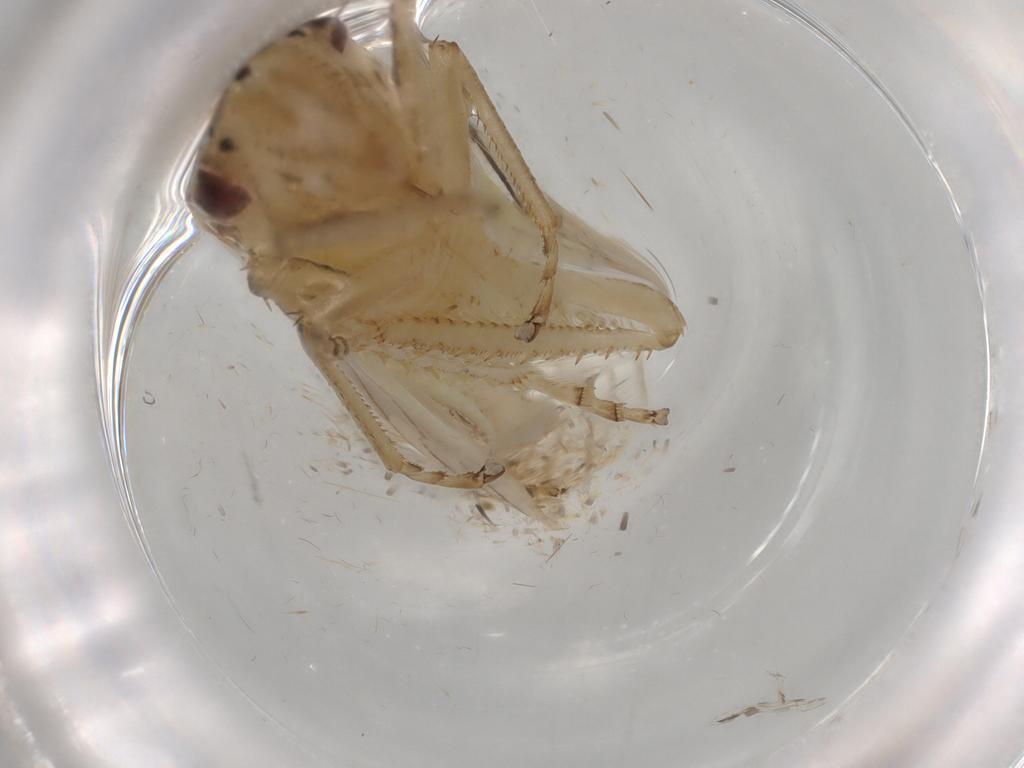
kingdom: Animalia
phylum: Arthropoda
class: Insecta
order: Hemiptera
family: Cicadellidae
